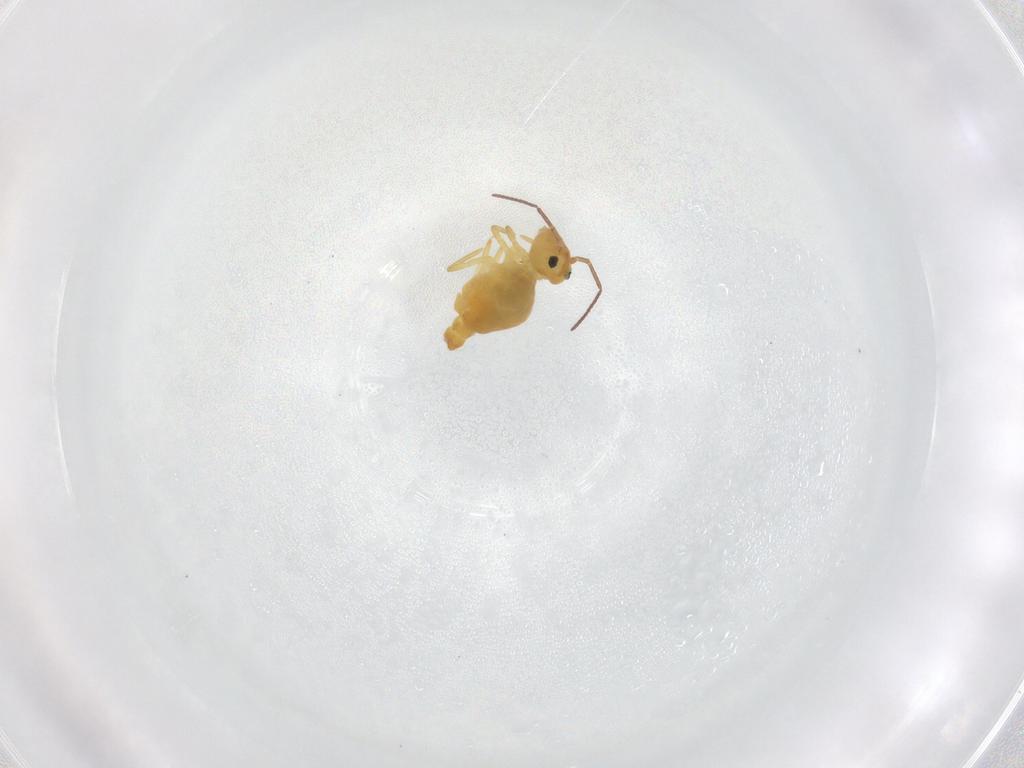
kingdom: Animalia
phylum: Arthropoda
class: Collembola
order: Symphypleona
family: Bourletiellidae
